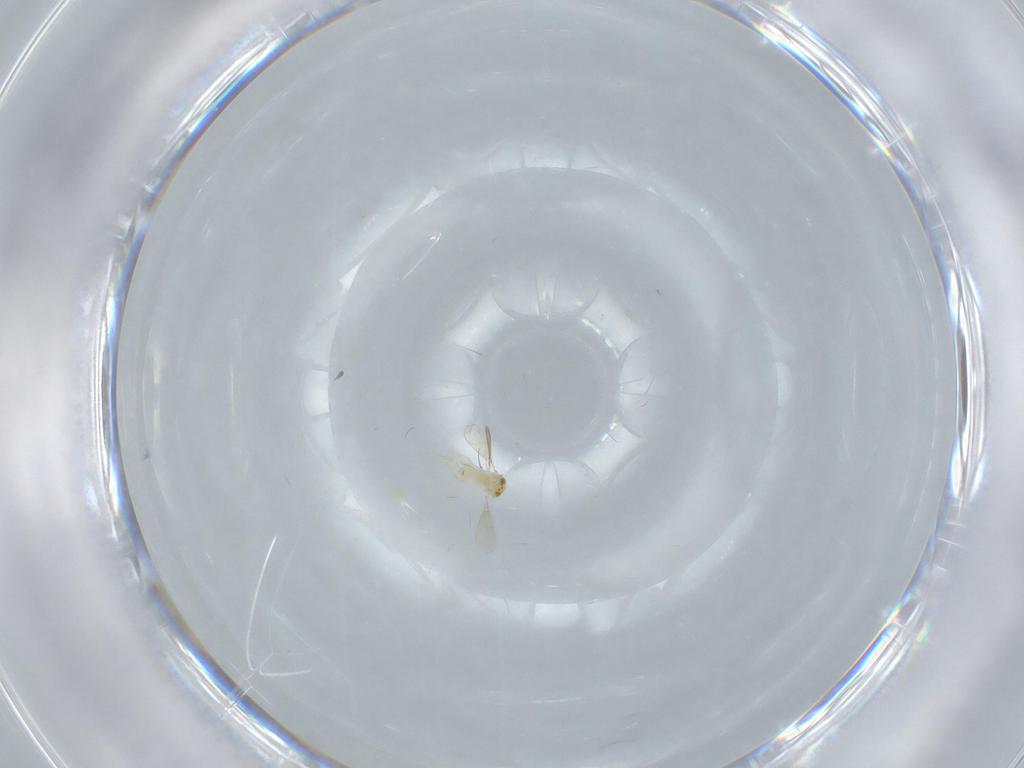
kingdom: Animalia
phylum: Arthropoda
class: Insecta
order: Hymenoptera
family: Aphelinidae
